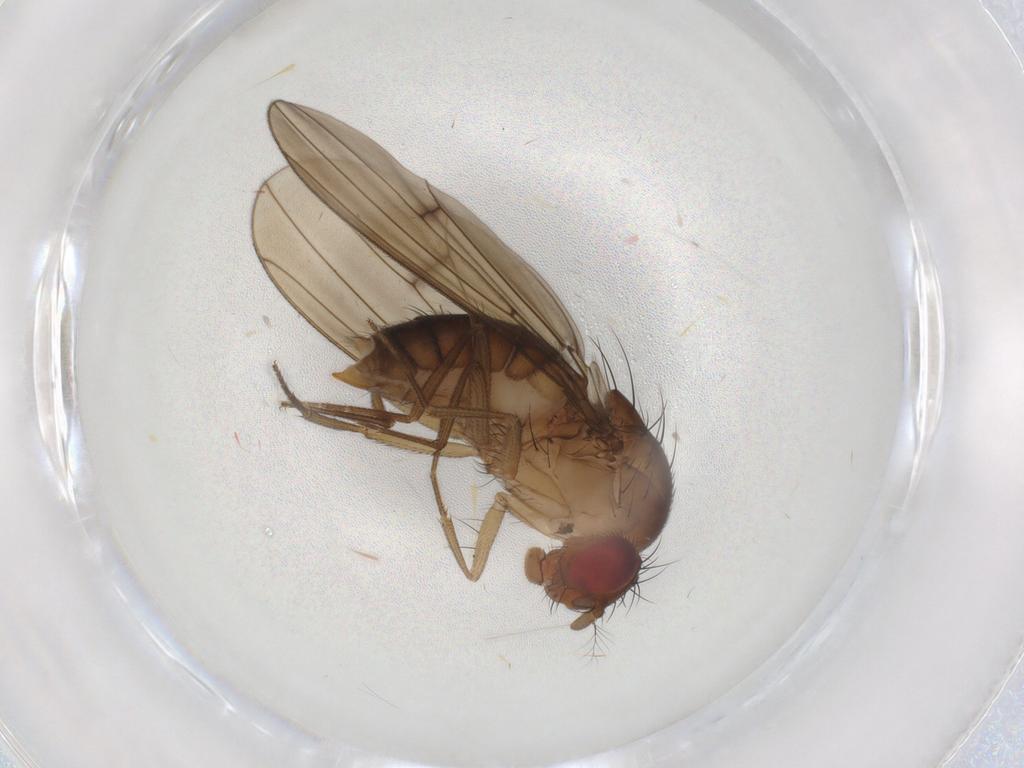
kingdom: Animalia
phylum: Arthropoda
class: Insecta
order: Diptera
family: Drosophilidae
